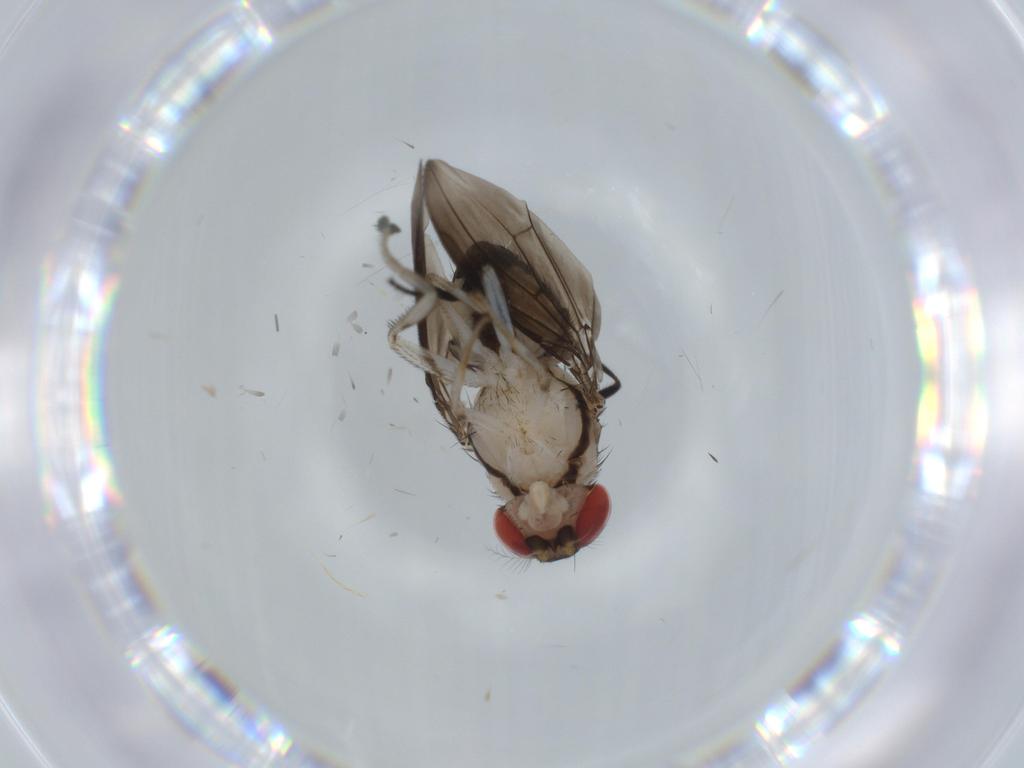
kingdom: Animalia
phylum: Arthropoda
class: Insecta
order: Diptera
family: Drosophilidae
